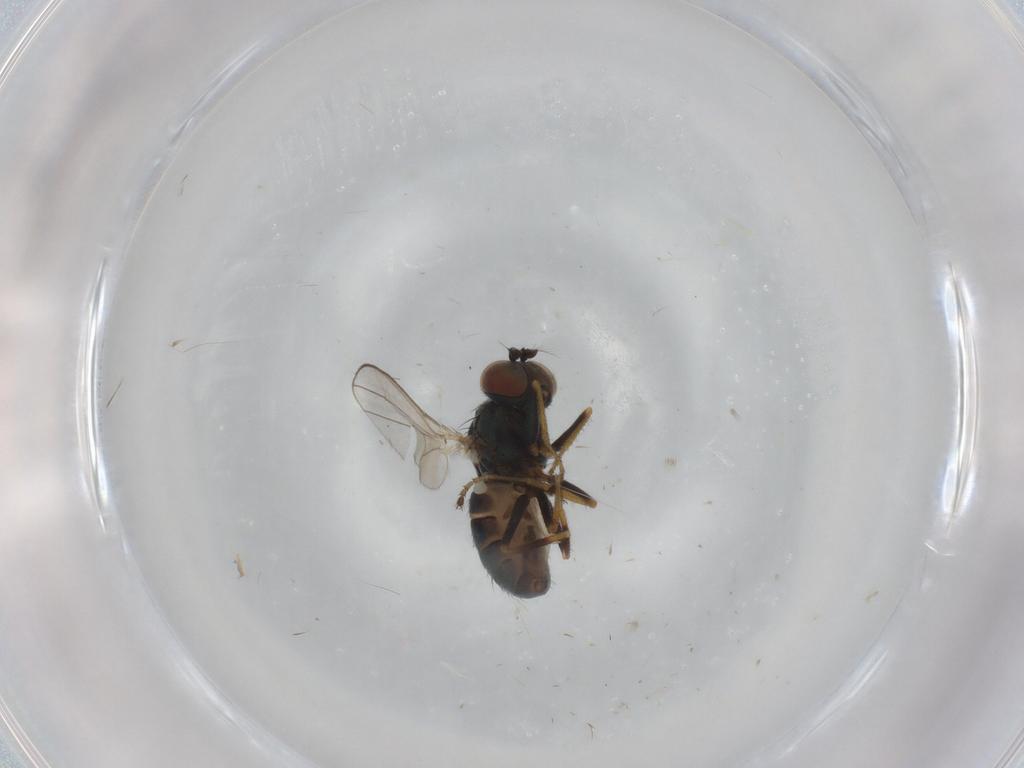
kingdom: Animalia
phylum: Arthropoda
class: Insecta
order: Diptera
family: Ephydridae
